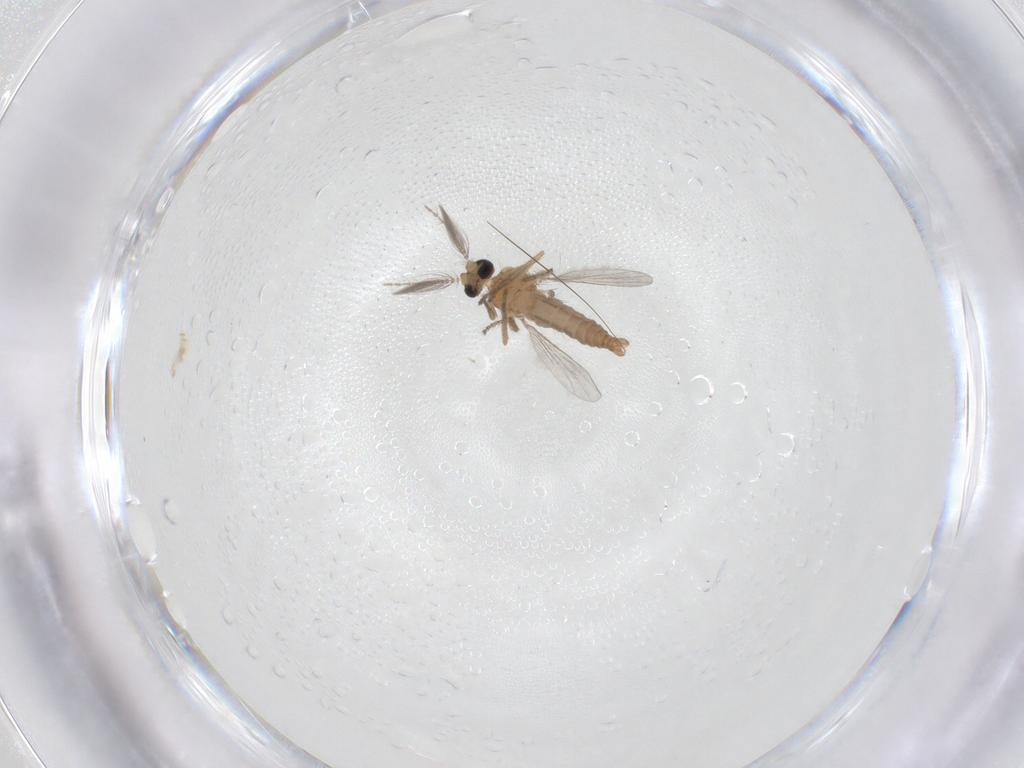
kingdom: Animalia
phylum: Arthropoda
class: Insecta
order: Diptera
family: Ceratopogonidae
